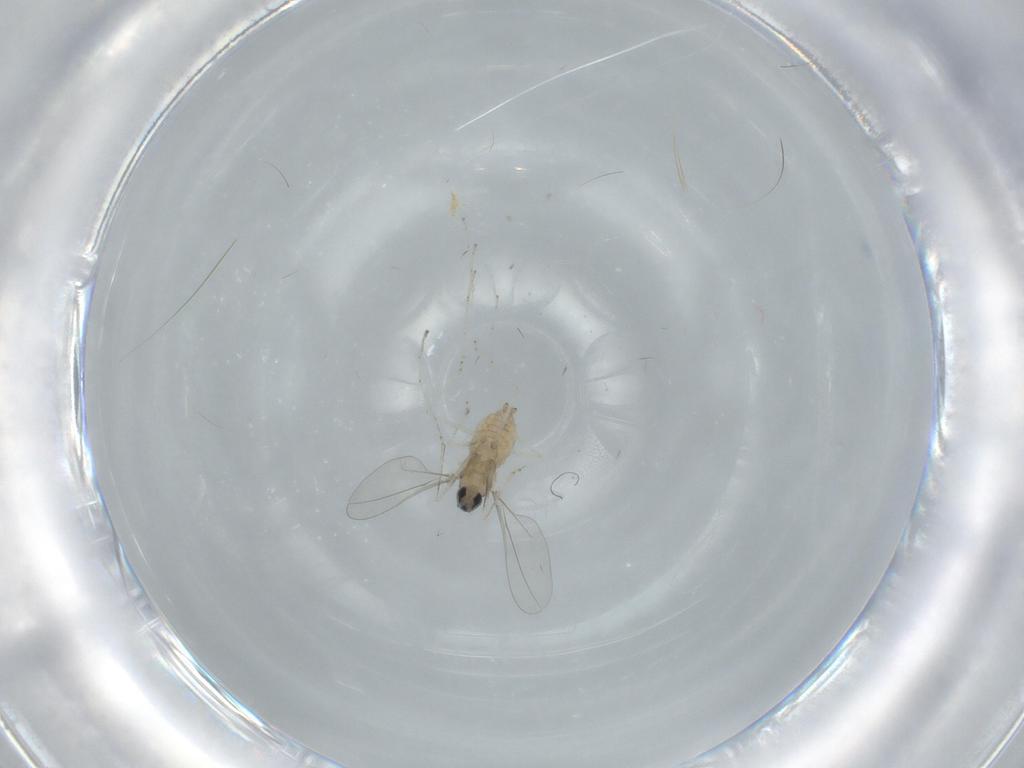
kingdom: Animalia
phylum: Arthropoda
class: Insecta
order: Diptera
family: Cecidomyiidae
